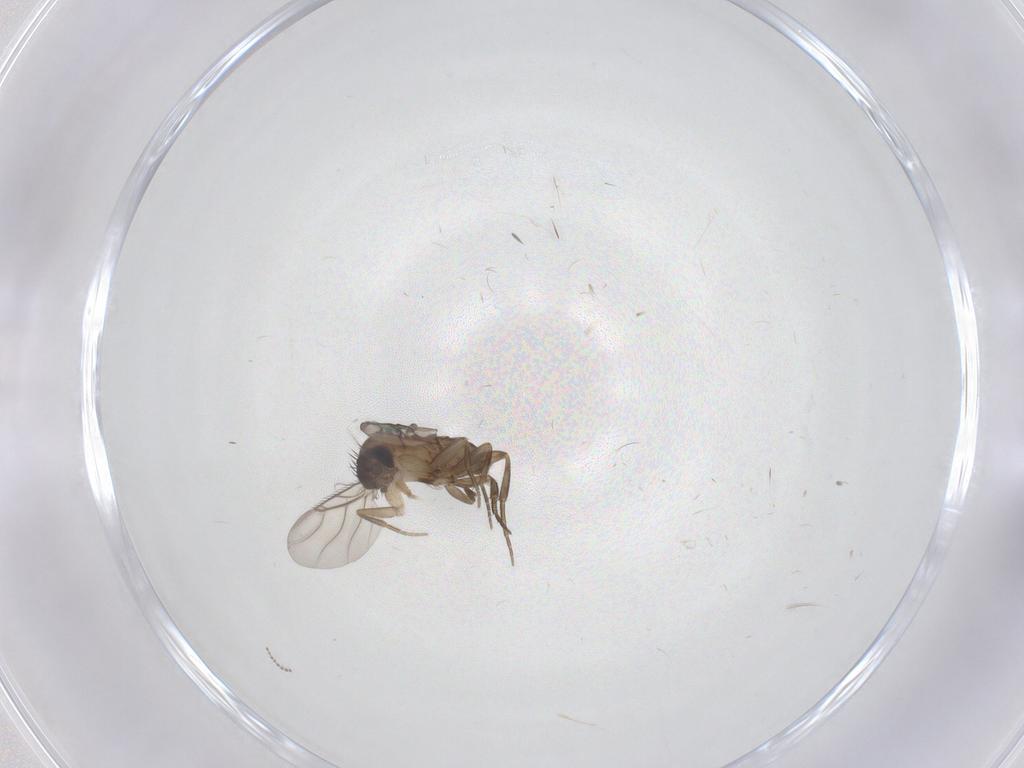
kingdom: Animalia
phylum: Arthropoda
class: Insecta
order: Diptera
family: Phoridae
